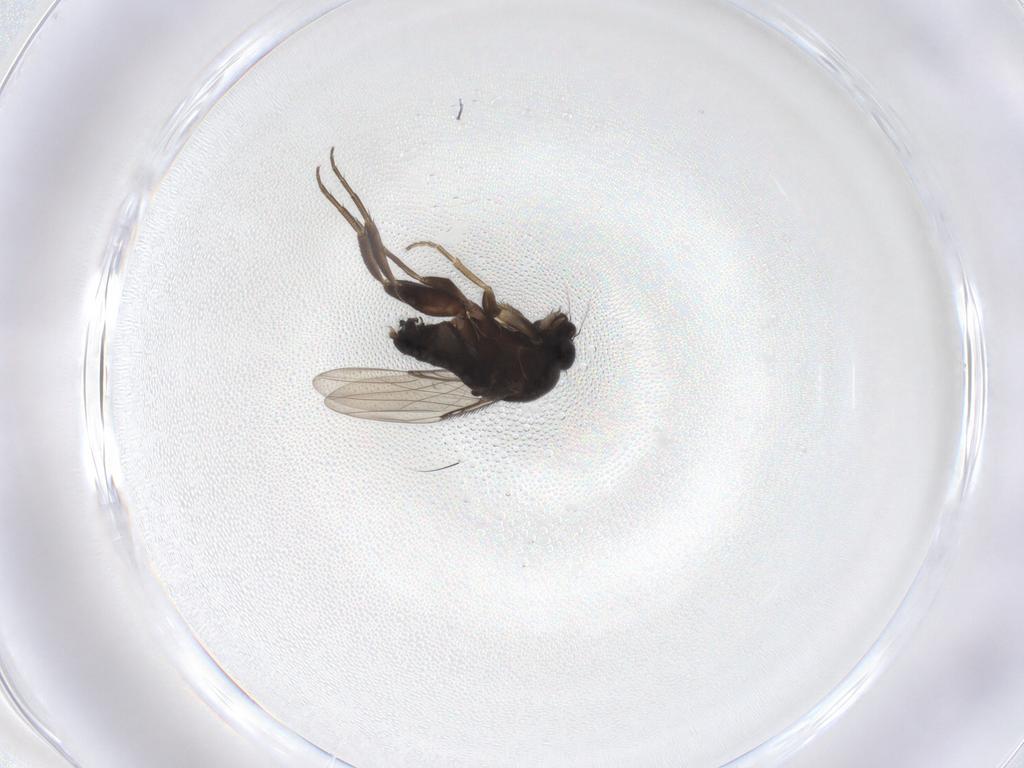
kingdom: Animalia
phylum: Arthropoda
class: Insecta
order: Diptera
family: Phoridae
